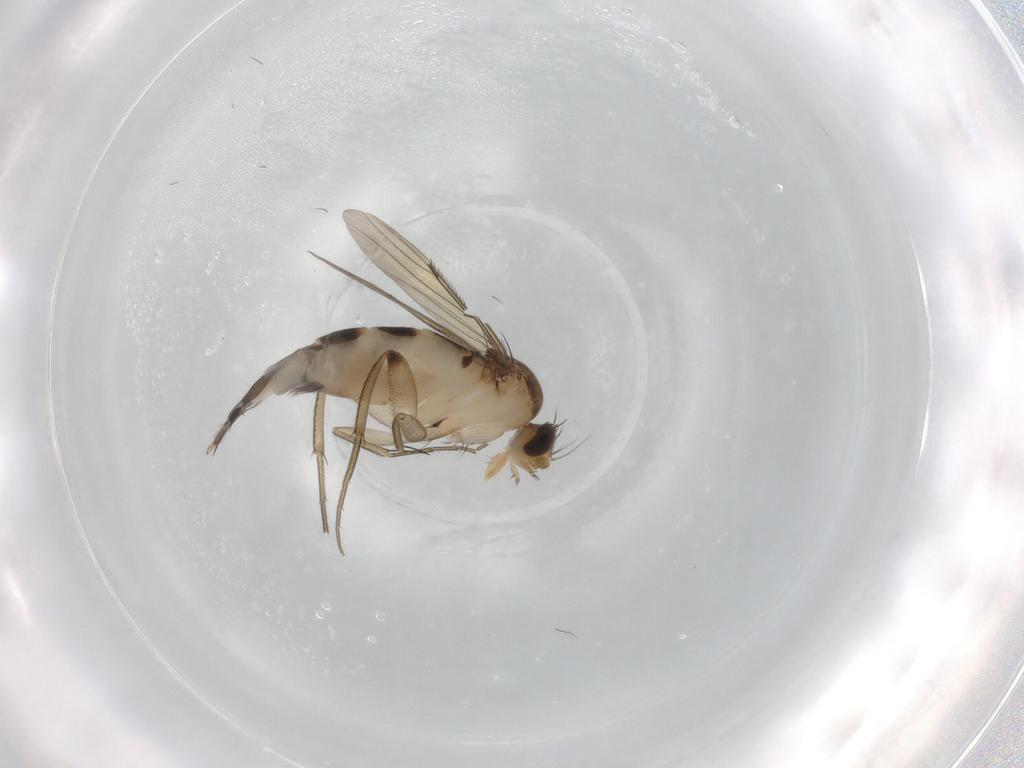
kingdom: Animalia
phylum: Arthropoda
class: Insecta
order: Diptera
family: Phoridae
